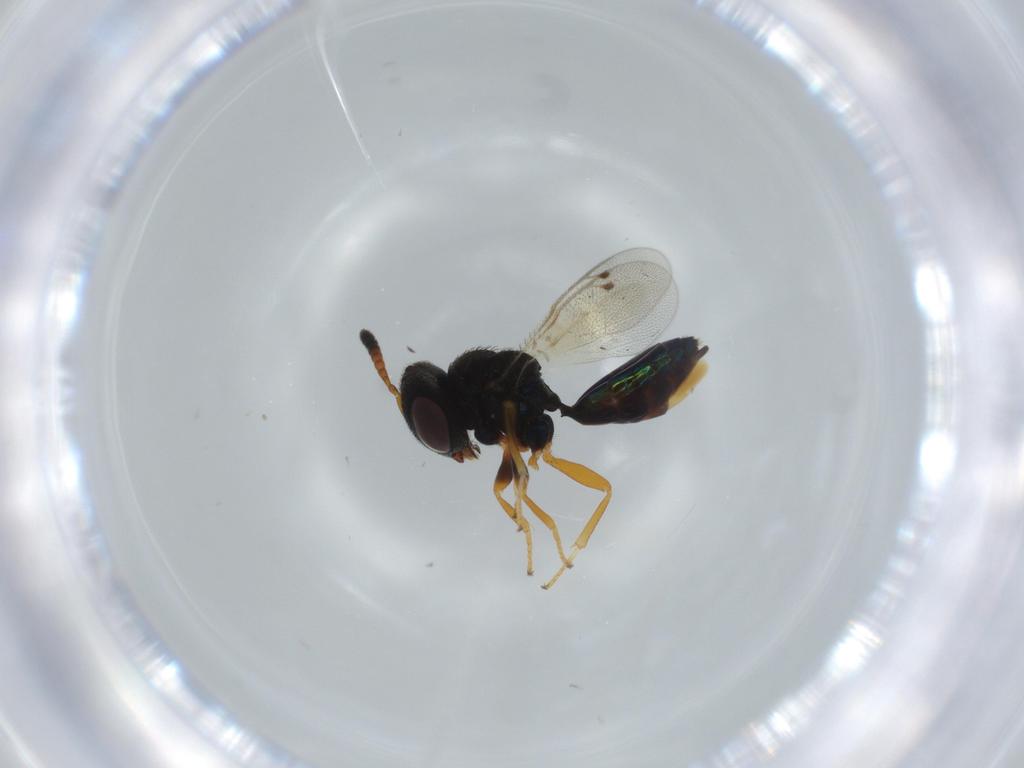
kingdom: Animalia
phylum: Arthropoda
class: Insecta
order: Hymenoptera
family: Agaonidae
